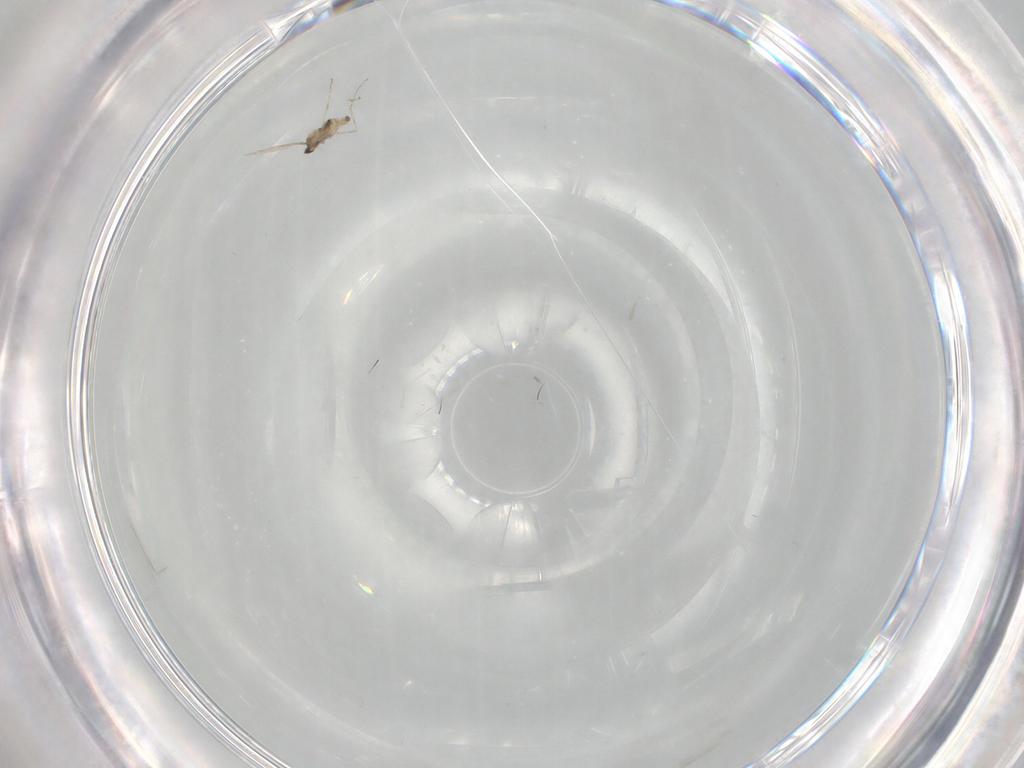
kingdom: Animalia
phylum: Arthropoda
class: Insecta
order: Diptera
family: Cecidomyiidae
